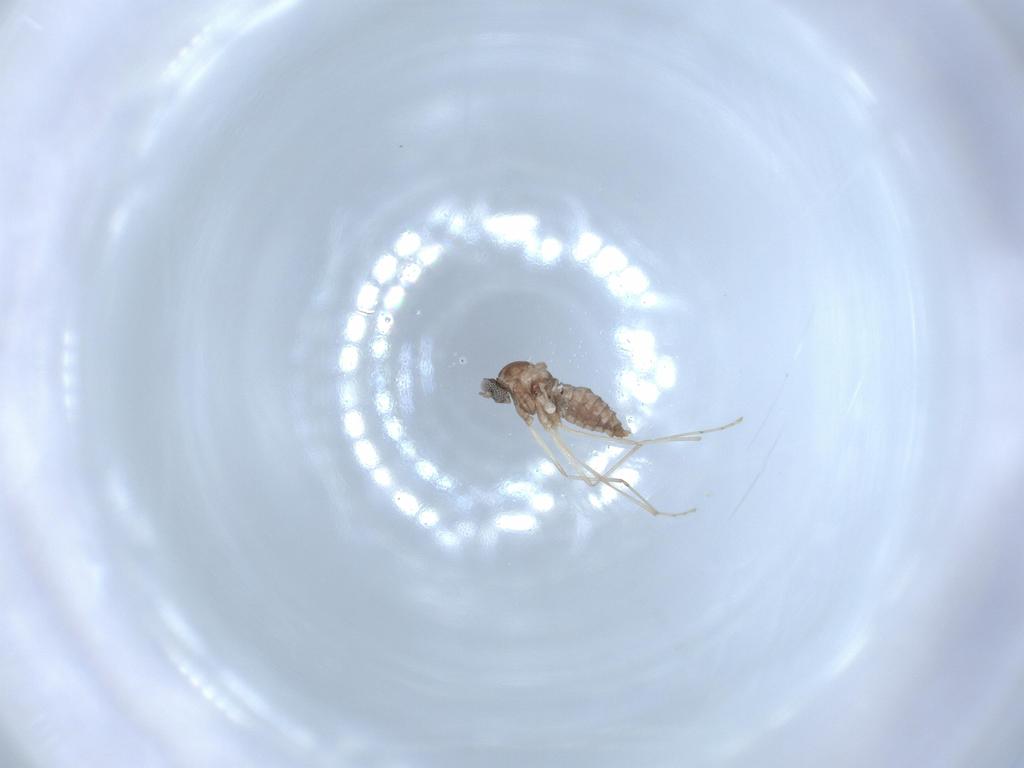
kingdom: Animalia
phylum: Arthropoda
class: Insecta
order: Diptera
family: Cecidomyiidae
